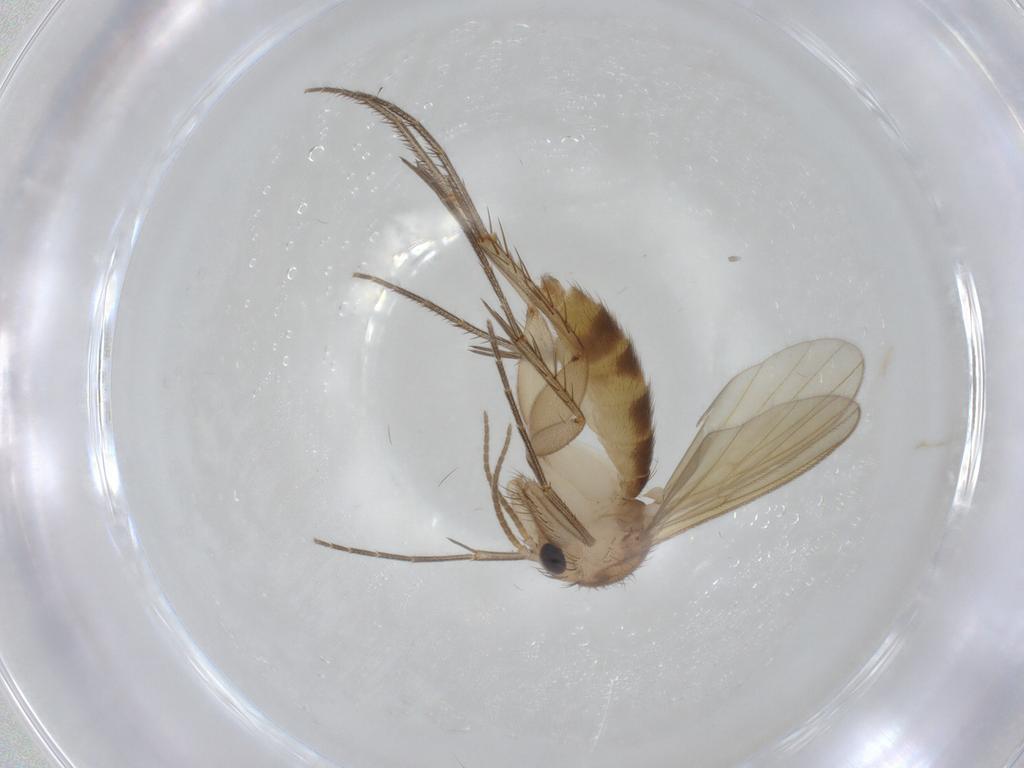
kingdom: Animalia
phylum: Arthropoda
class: Insecta
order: Diptera
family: Mycetophilidae
